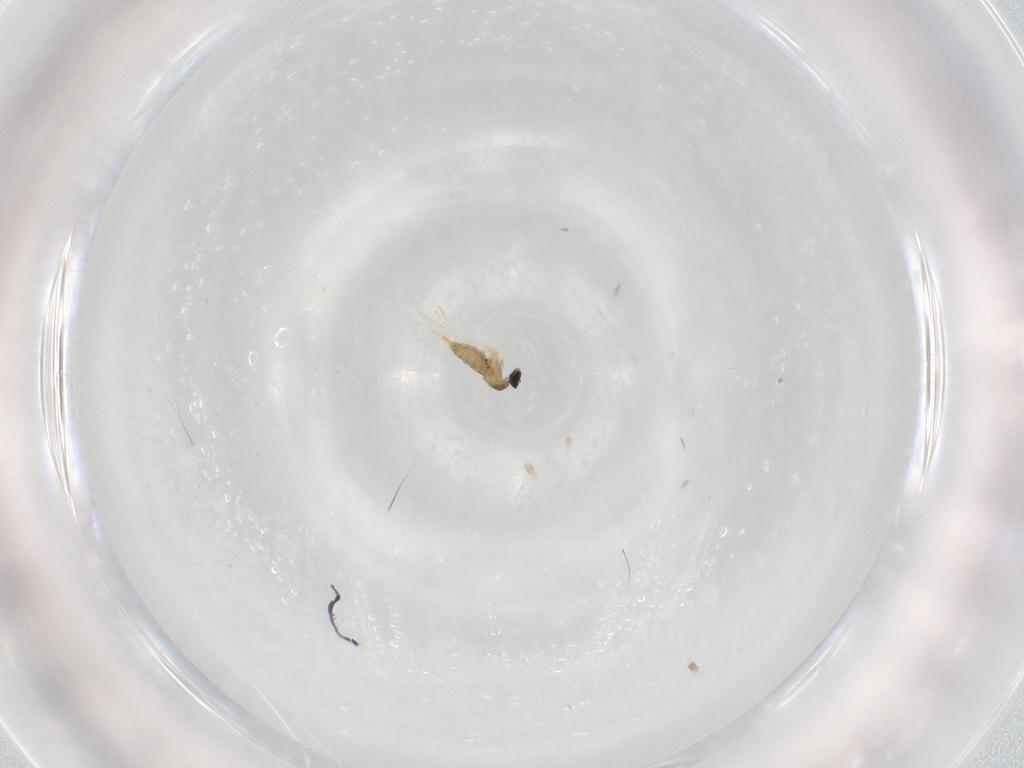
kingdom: Animalia
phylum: Arthropoda
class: Insecta
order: Diptera
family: Cecidomyiidae
